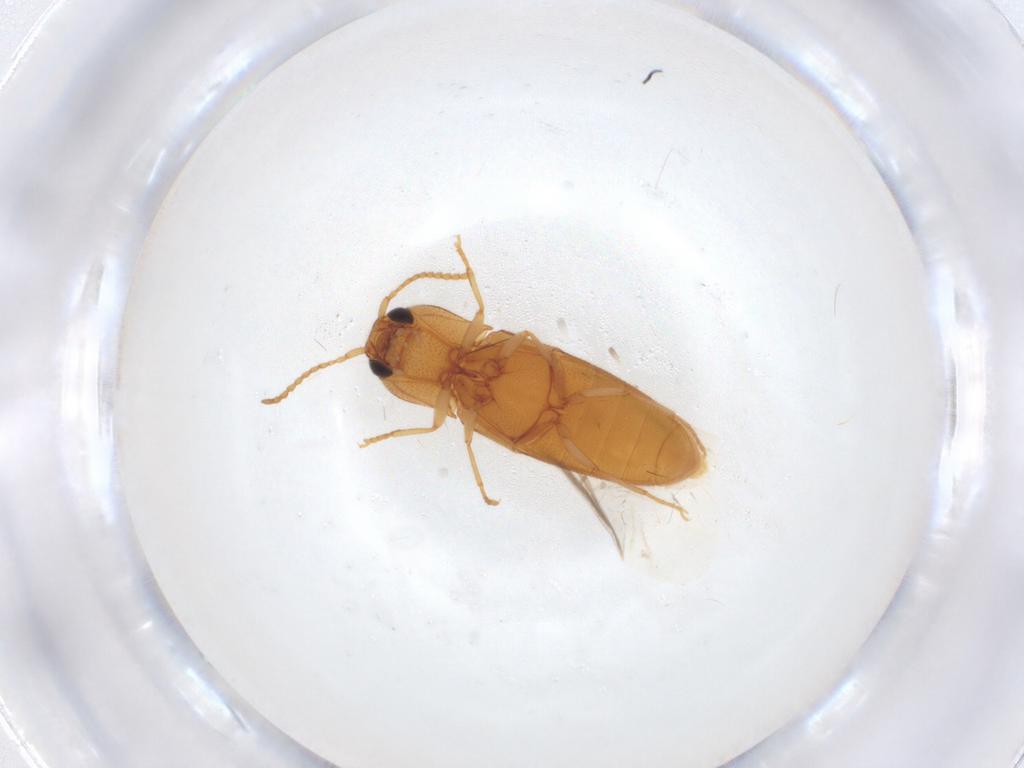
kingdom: Animalia
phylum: Arthropoda
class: Insecta
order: Coleoptera
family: Elateridae
